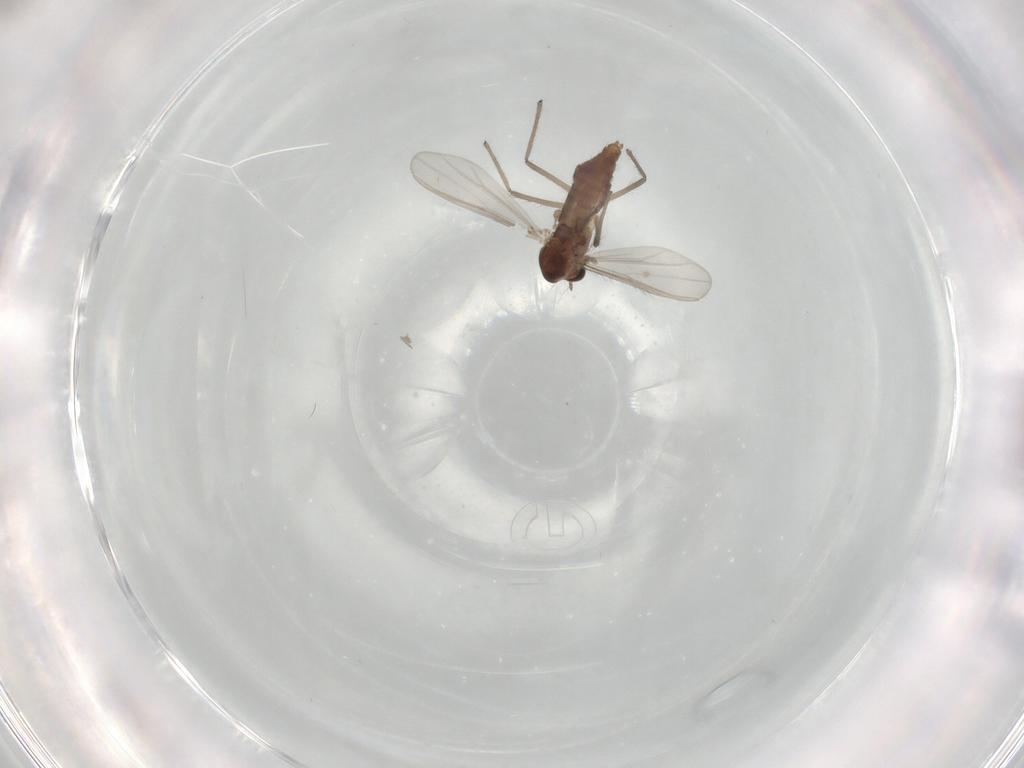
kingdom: Animalia
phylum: Arthropoda
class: Insecta
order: Diptera
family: Chironomidae
